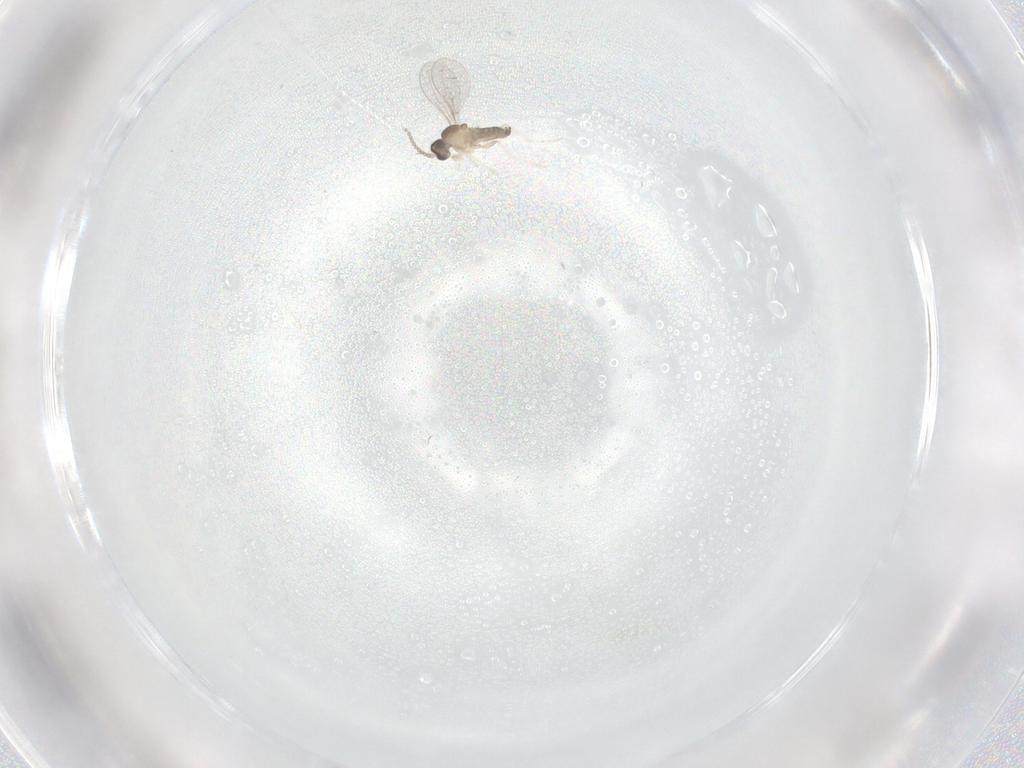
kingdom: Animalia
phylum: Arthropoda
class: Insecta
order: Diptera
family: Cecidomyiidae
